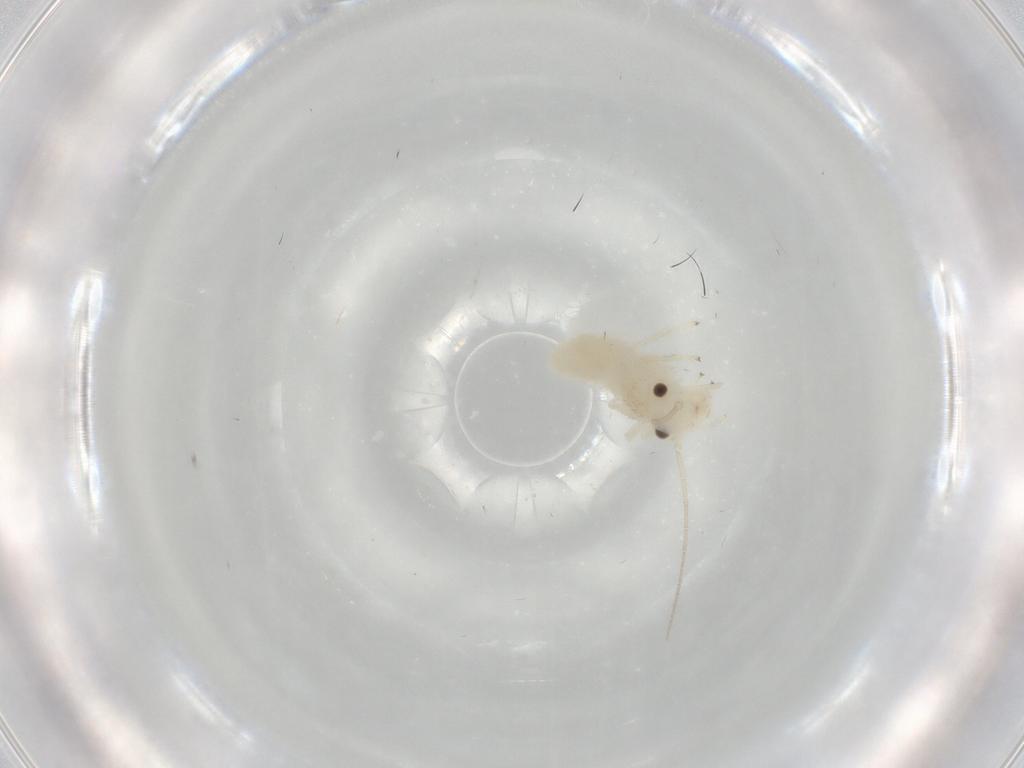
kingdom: Animalia
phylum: Arthropoda
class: Insecta
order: Psocodea
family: Caeciliusidae
